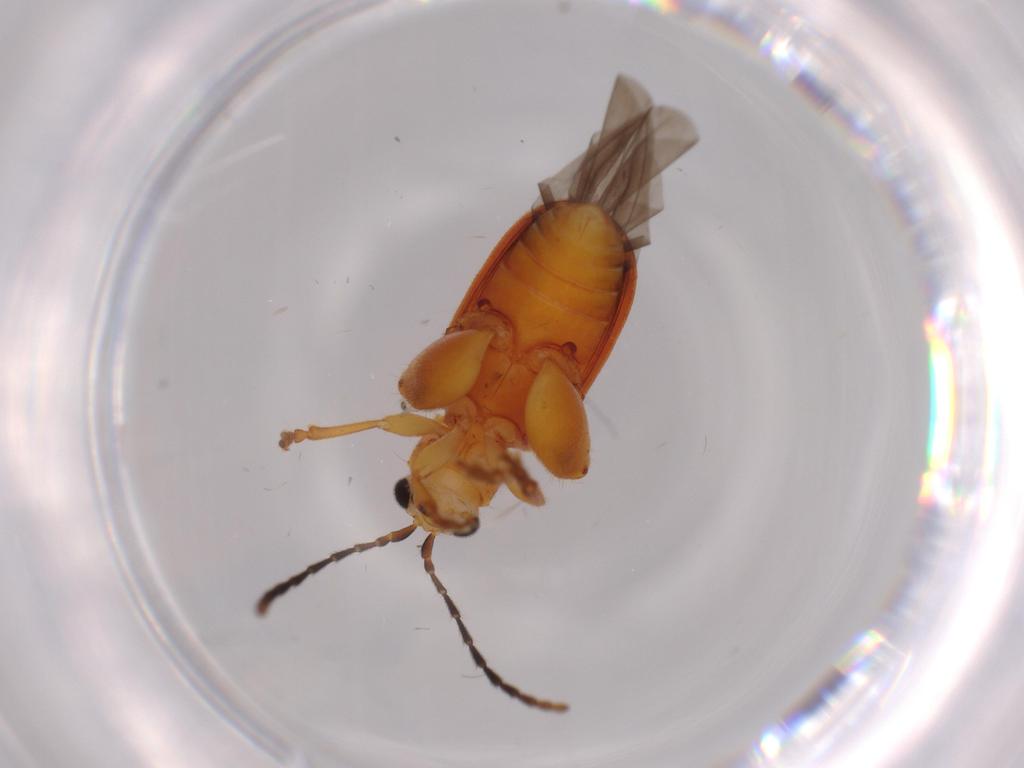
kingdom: Animalia
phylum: Arthropoda
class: Insecta
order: Coleoptera
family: Chrysomelidae
